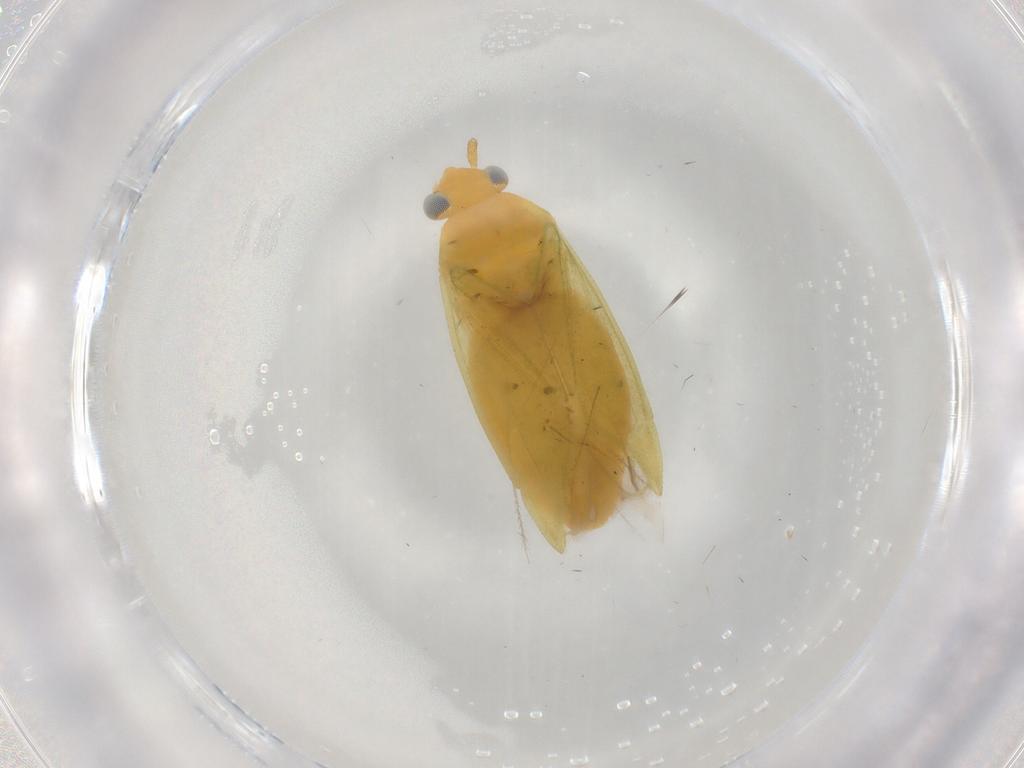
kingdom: Animalia
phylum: Arthropoda
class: Insecta
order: Hemiptera
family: Miridae
